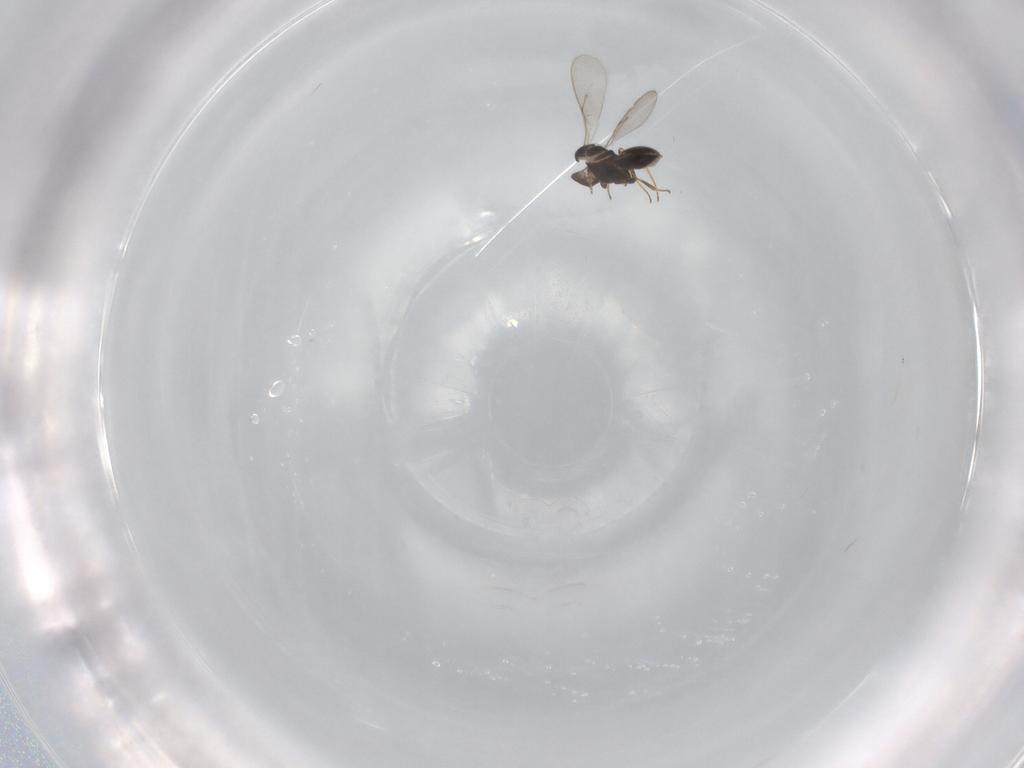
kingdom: Animalia
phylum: Arthropoda
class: Insecta
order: Hymenoptera
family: Scelionidae
